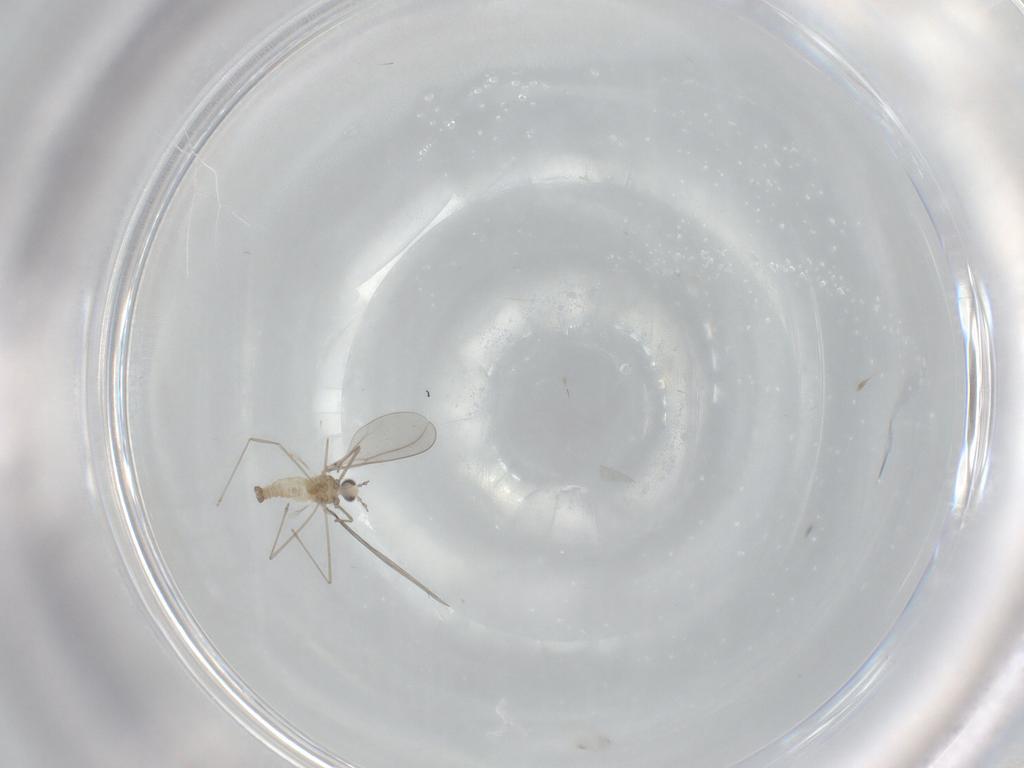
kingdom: Animalia
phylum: Arthropoda
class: Insecta
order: Diptera
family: Cecidomyiidae
